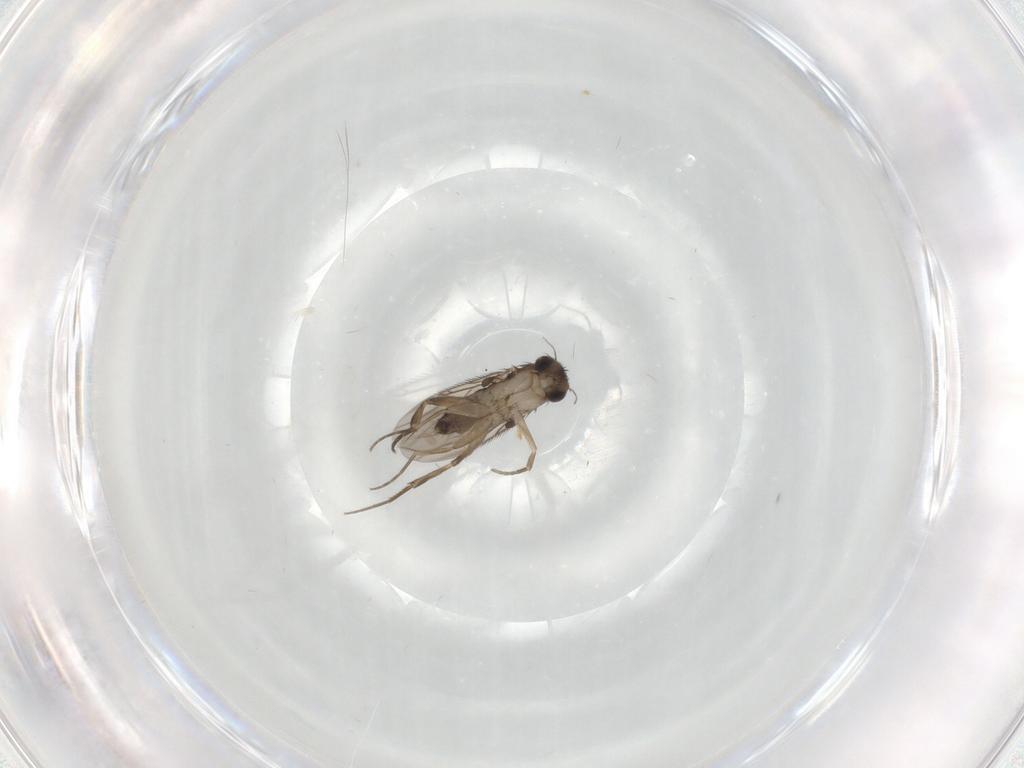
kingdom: Animalia
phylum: Arthropoda
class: Insecta
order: Diptera
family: Phoridae
